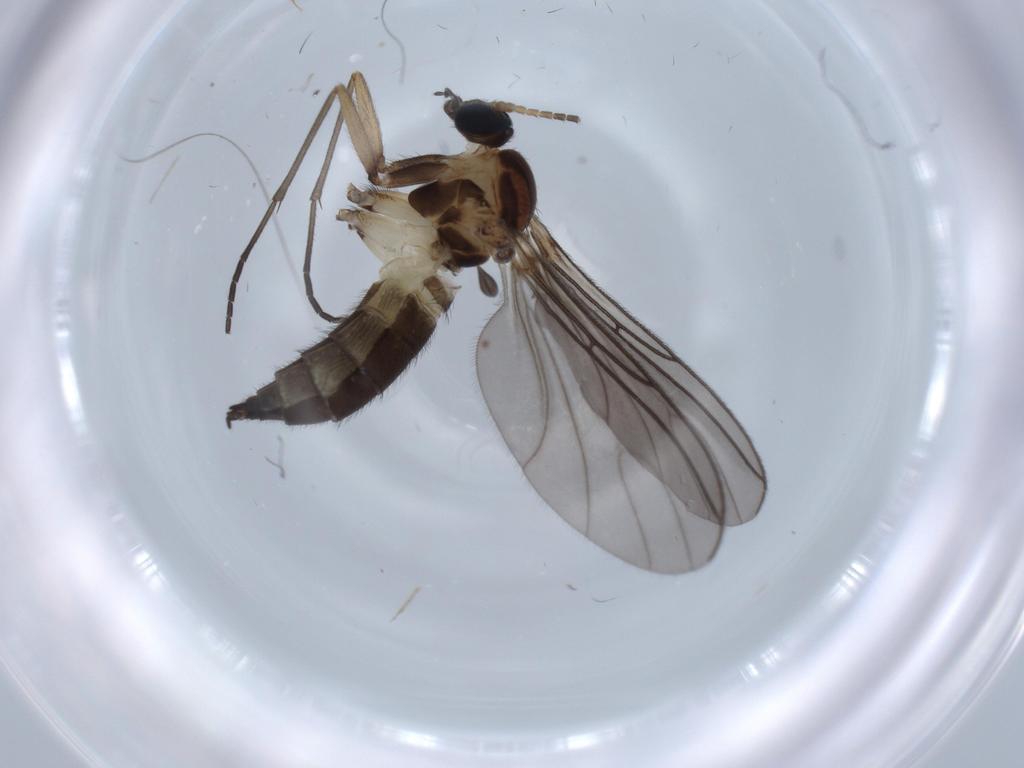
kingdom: Animalia
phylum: Arthropoda
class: Insecta
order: Diptera
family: Sciaridae
